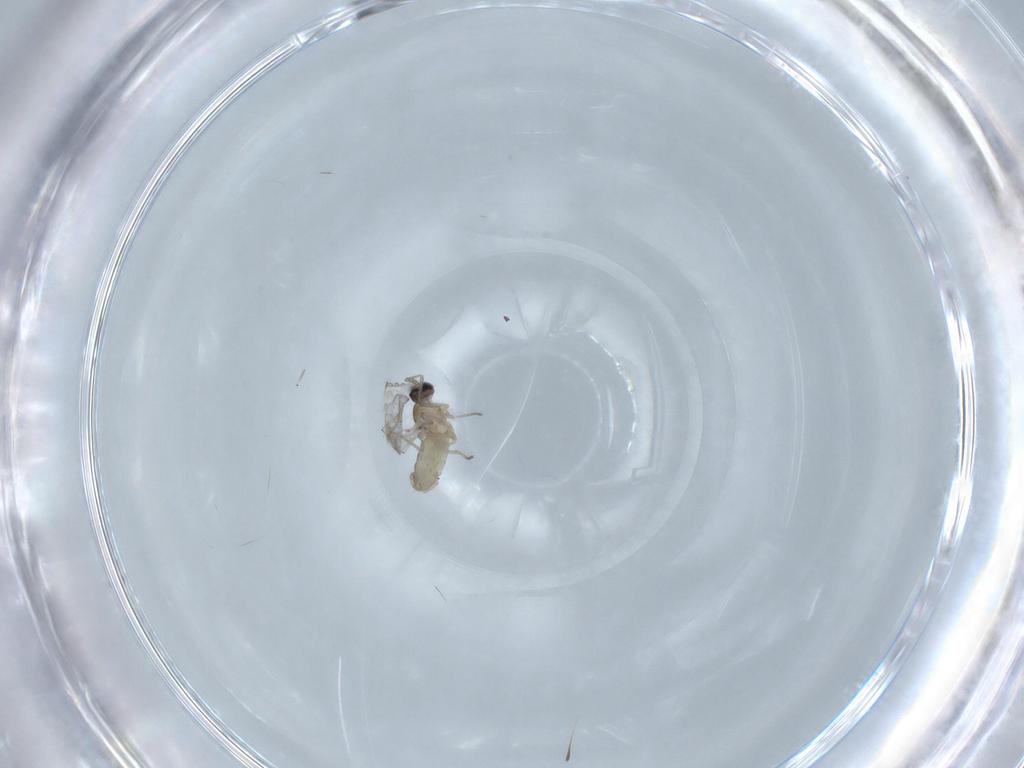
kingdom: Animalia
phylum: Arthropoda
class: Insecta
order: Diptera
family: Cecidomyiidae
